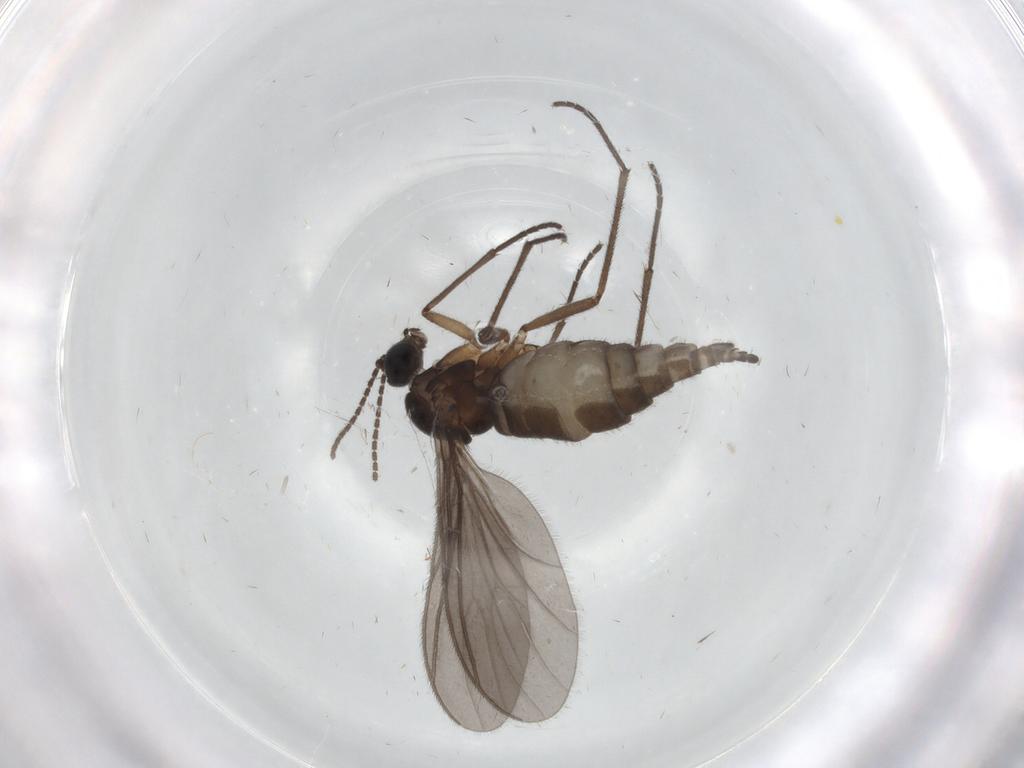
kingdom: Animalia
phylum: Arthropoda
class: Insecta
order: Diptera
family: Sciaridae
